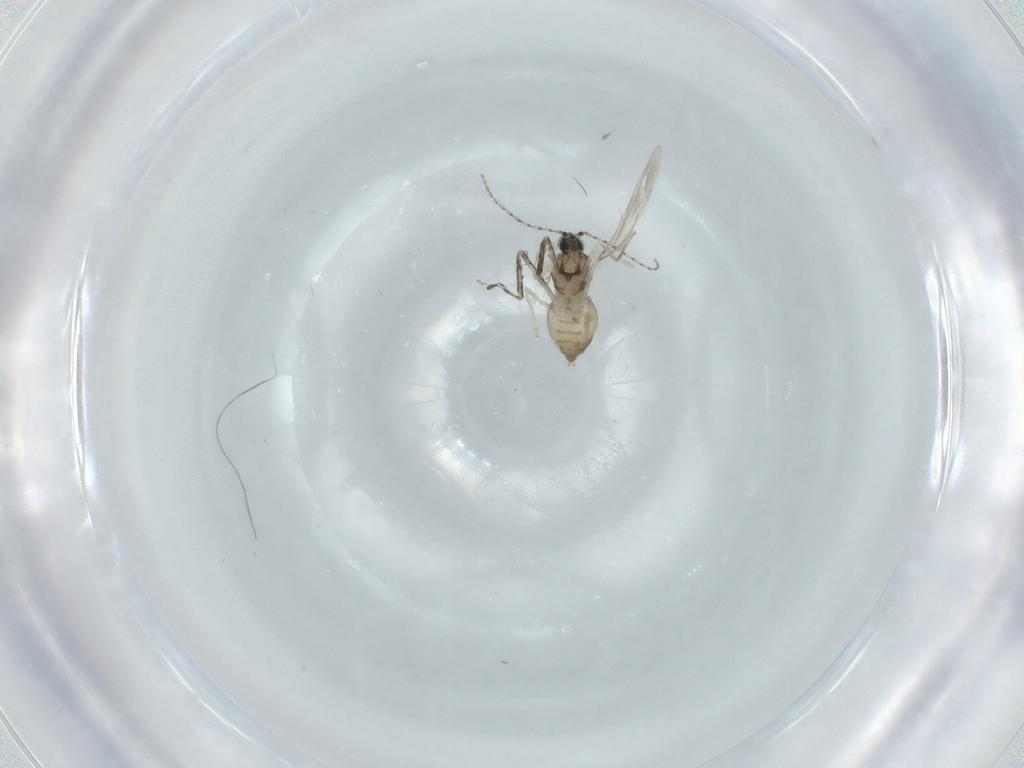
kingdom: Animalia
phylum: Arthropoda
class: Insecta
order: Diptera
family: Cecidomyiidae
